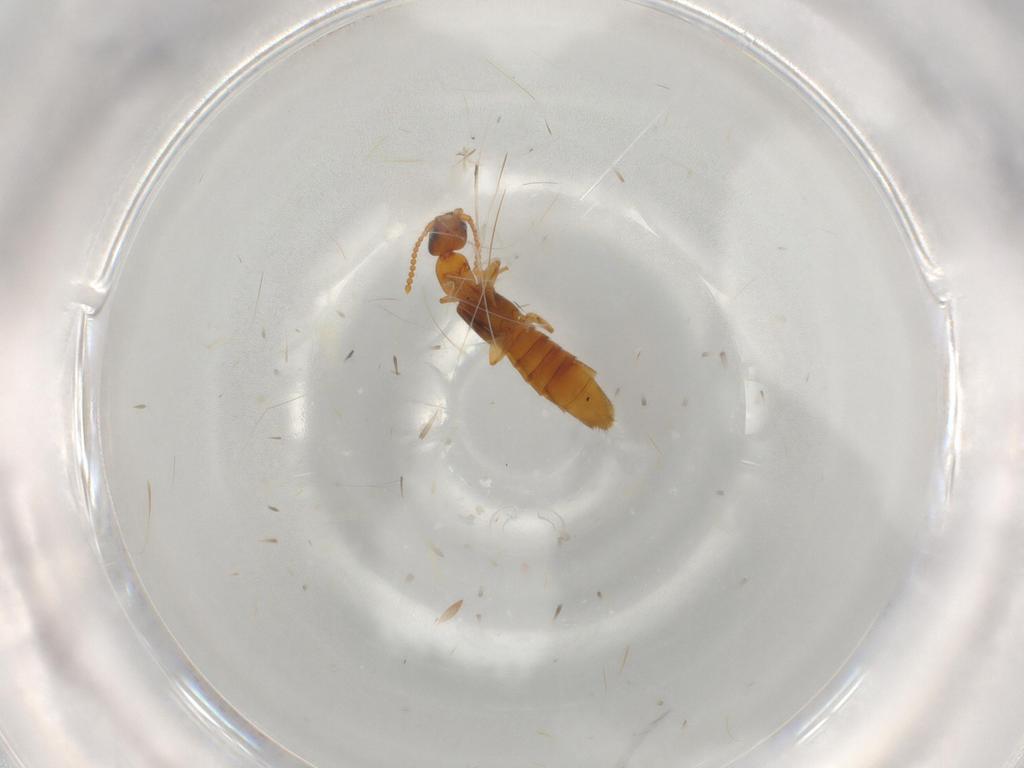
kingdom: Animalia
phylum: Arthropoda
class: Insecta
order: Coleoptera
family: Staphylinidae
